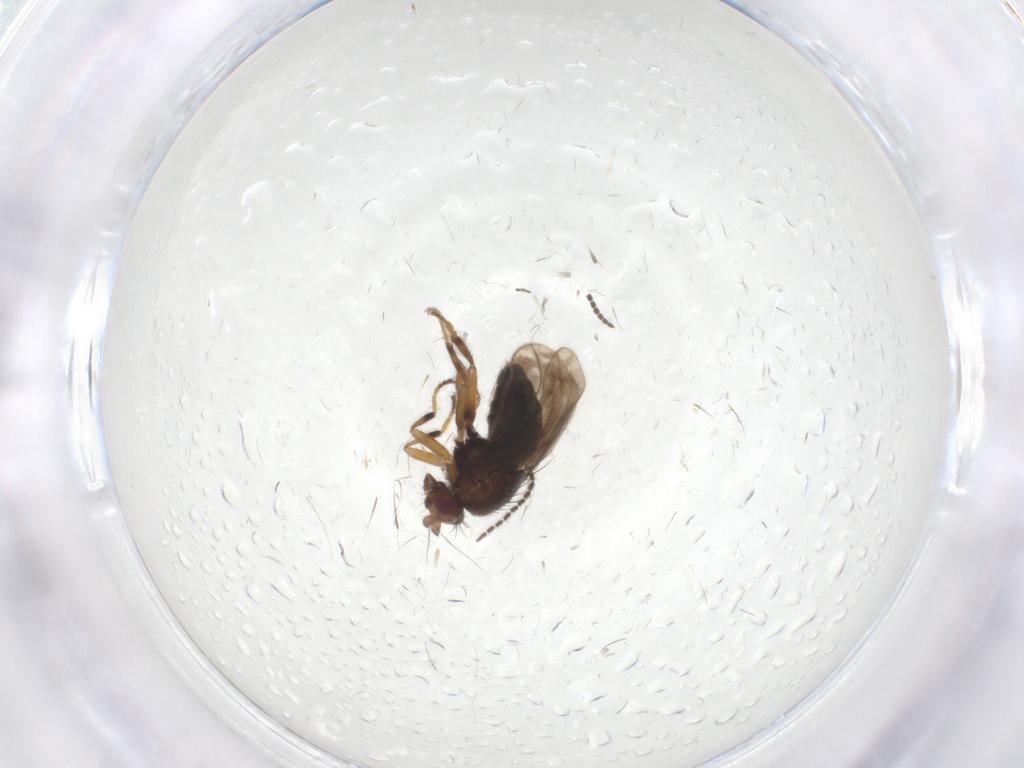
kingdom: Animalia
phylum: Arthropoda
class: Insecta
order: Diptera
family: Sphaeroceridae
